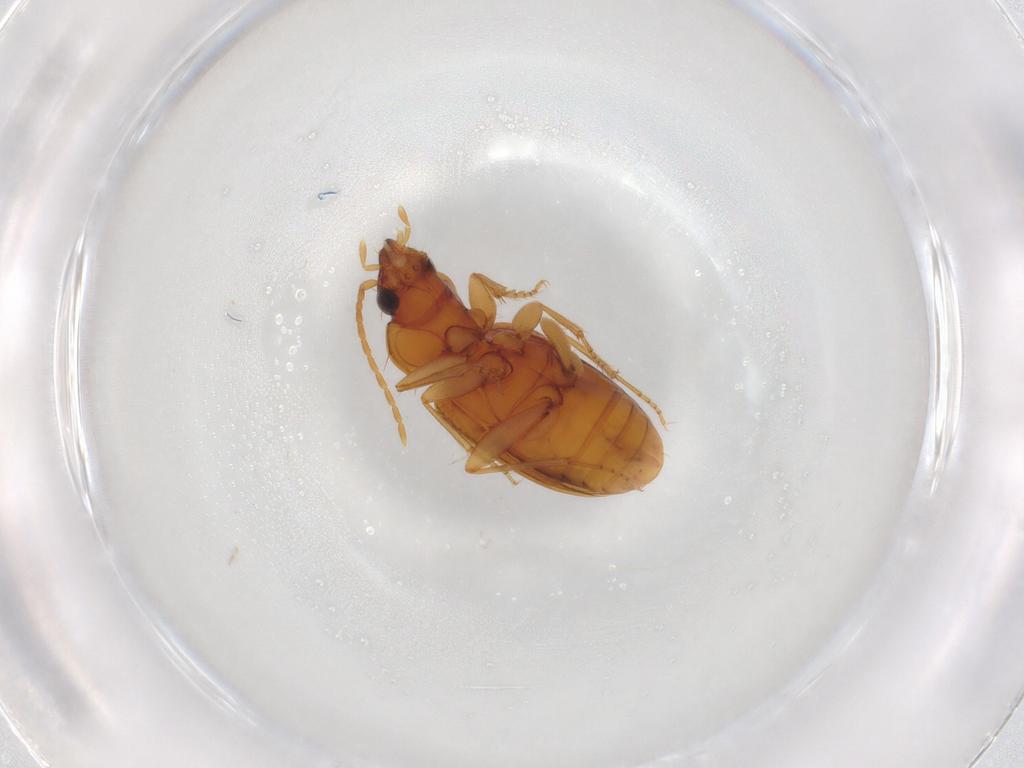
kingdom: Animalia
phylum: Arthropoda
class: Insecta
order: Coleoptera
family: Carabidae
